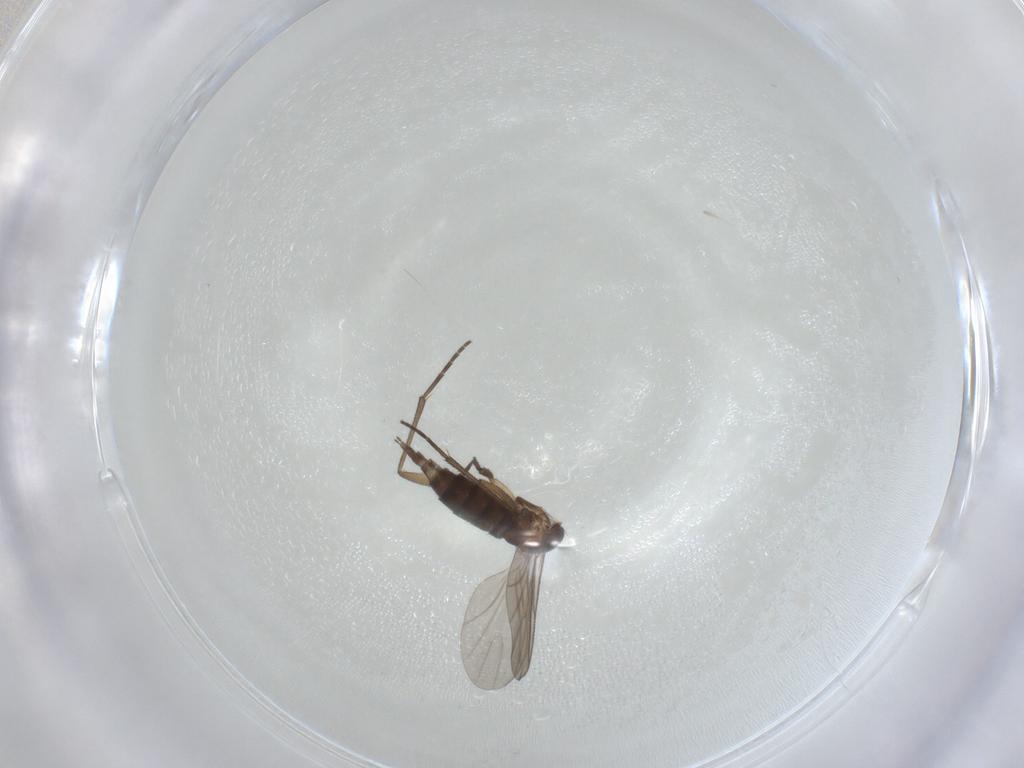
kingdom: Animalia
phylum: Arthropoda
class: Insecta
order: Diptera
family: Sciaridae
